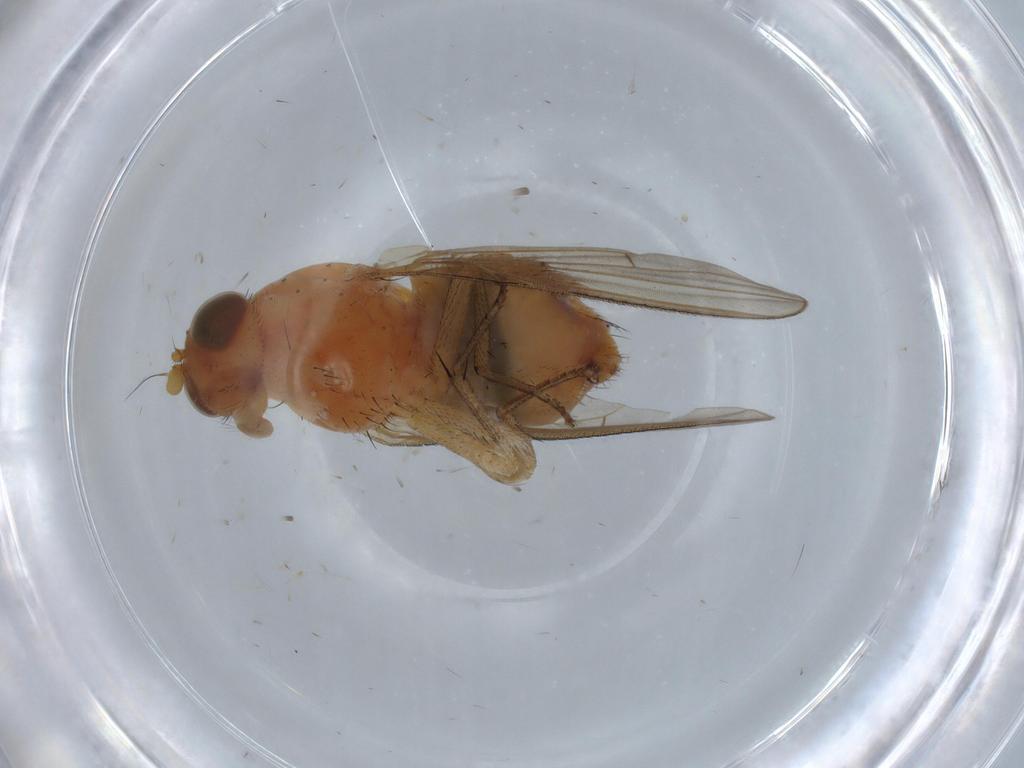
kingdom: Animalia
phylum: Arthropoda
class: Insecta
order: Diptera
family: Lauxaniidae
